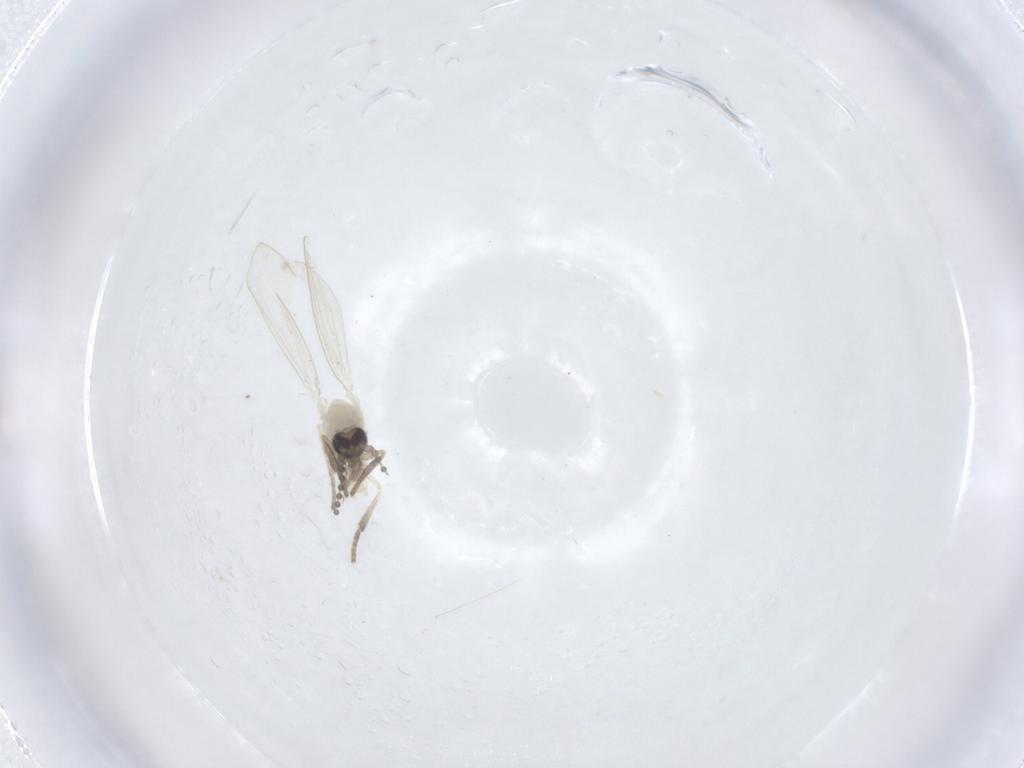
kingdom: Animalia
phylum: Arthropoda
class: Insecta
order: Diptera
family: Psychodidae
